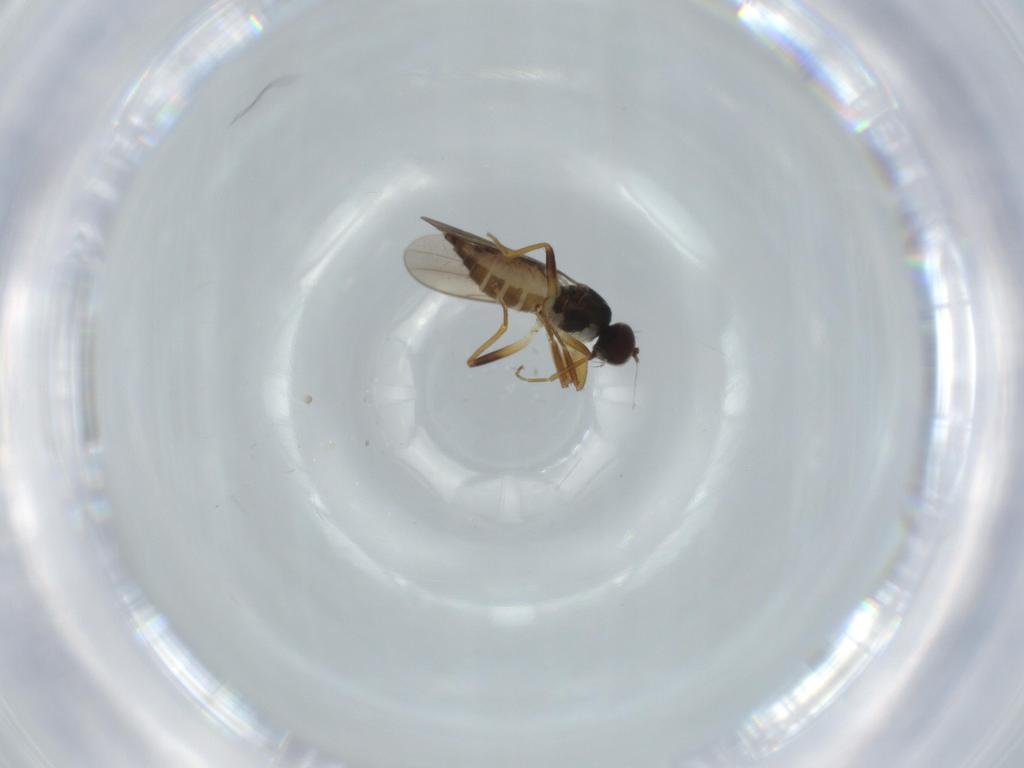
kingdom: Animalia
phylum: Arthropoda
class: Insecta
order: Diptera
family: Hybotidae
